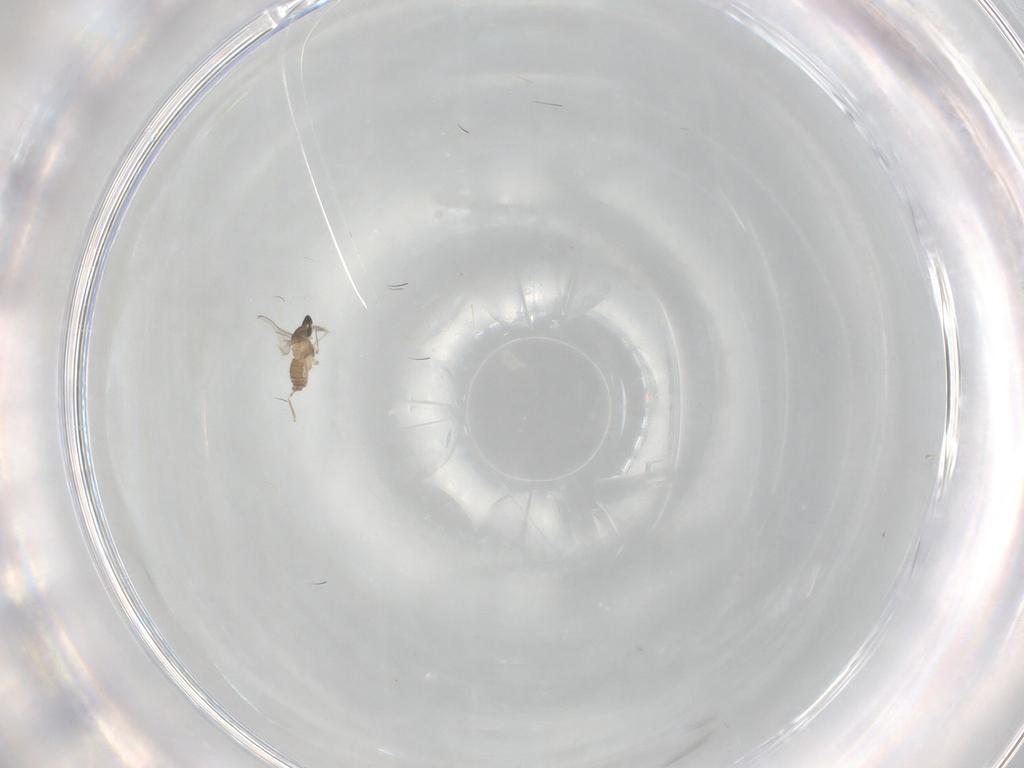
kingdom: Animalia
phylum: Arthropoda
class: Insecta
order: Diptera
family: Cecidomyiidae
